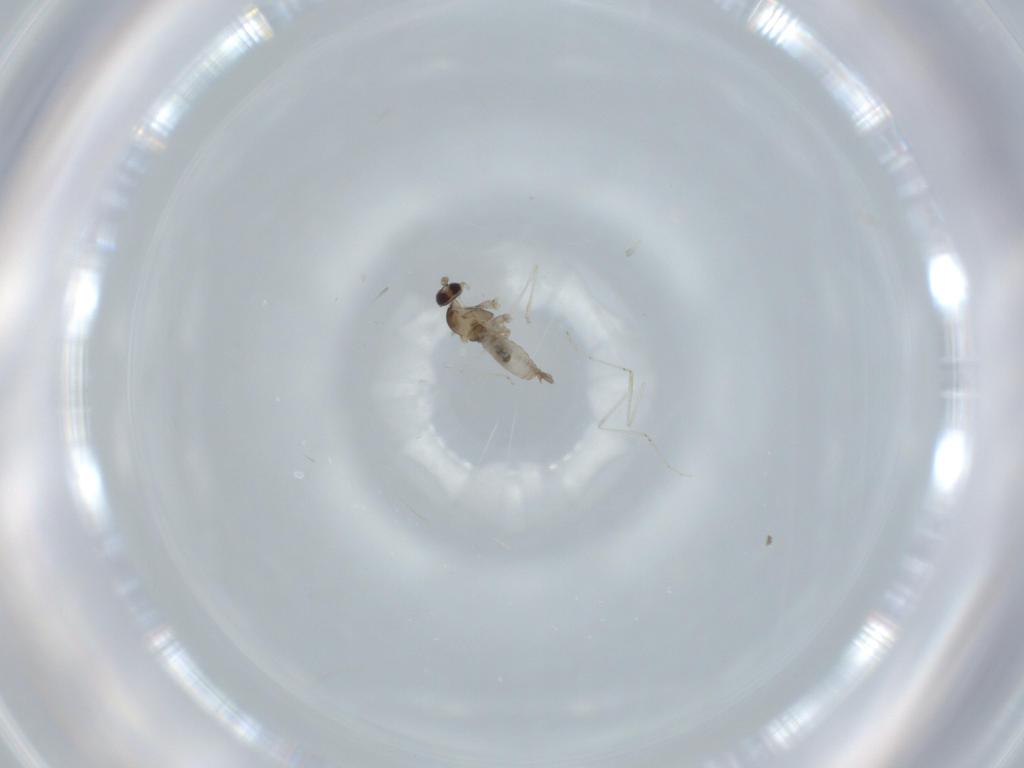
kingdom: Animalia
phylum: Arthropoda
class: Insecta
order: Diptera
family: Cecidomyiidae
